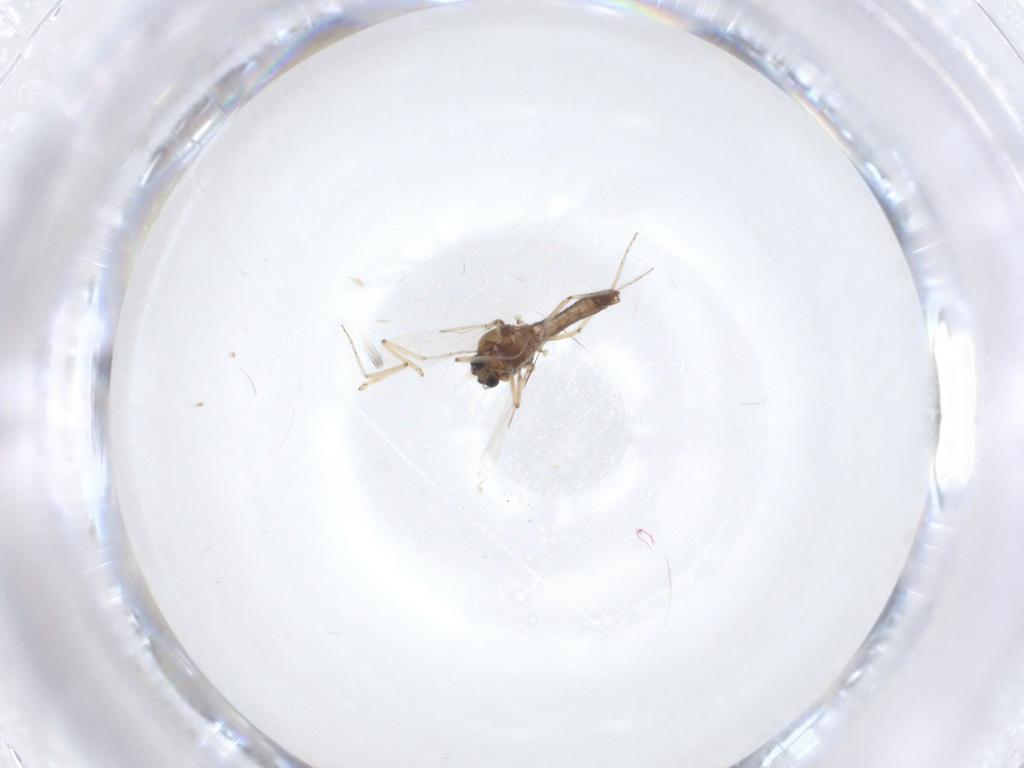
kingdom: Animalia
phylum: Arthropoda
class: Insecta
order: Diptera
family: Ceratopogonidae
